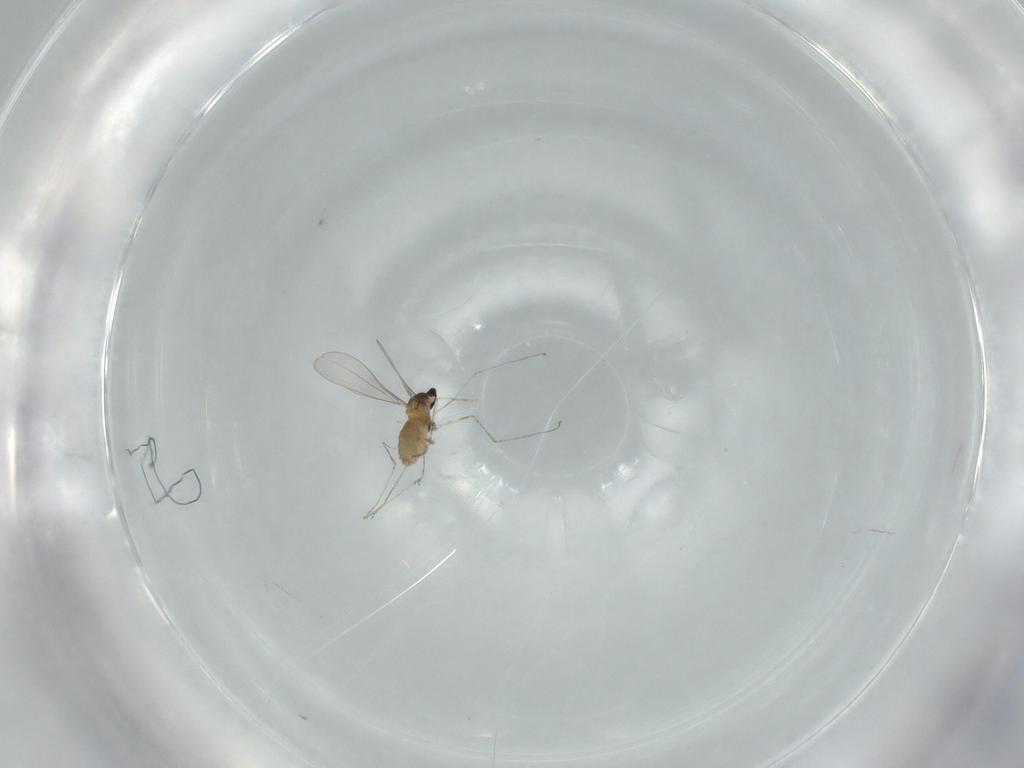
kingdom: Animalia
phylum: Arthropoda
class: Insecta
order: Diptera
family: Cecidomyiidae
